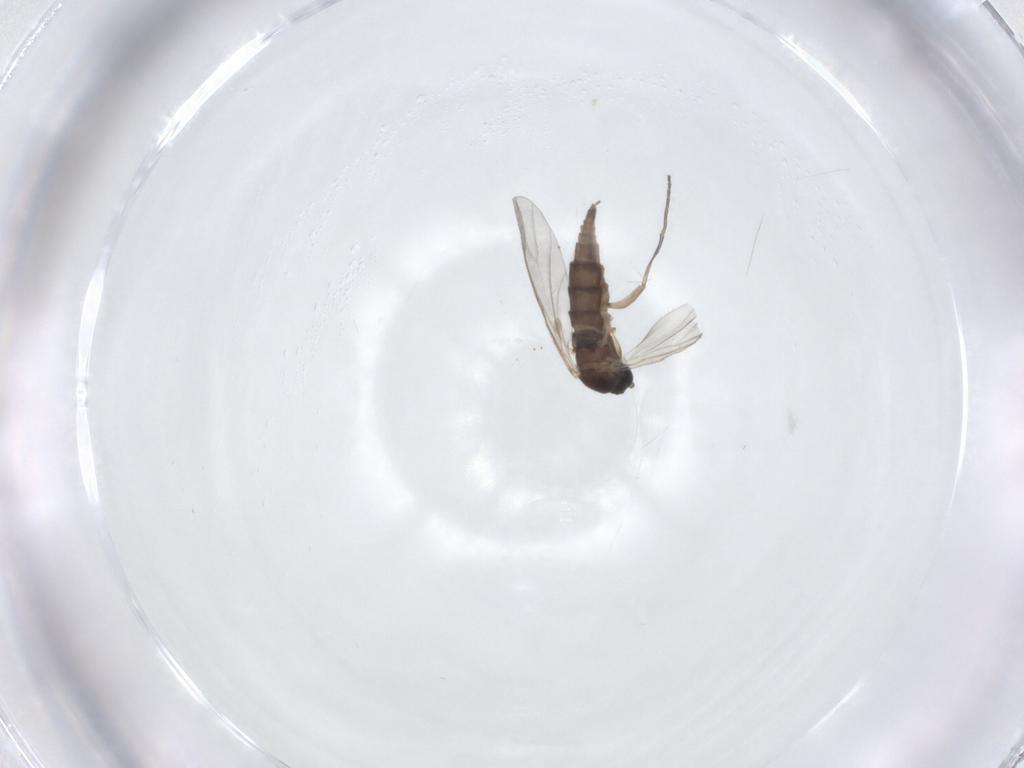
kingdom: Animalia
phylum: Arthropoda
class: Insecta
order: Diptera
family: Sciaridae
